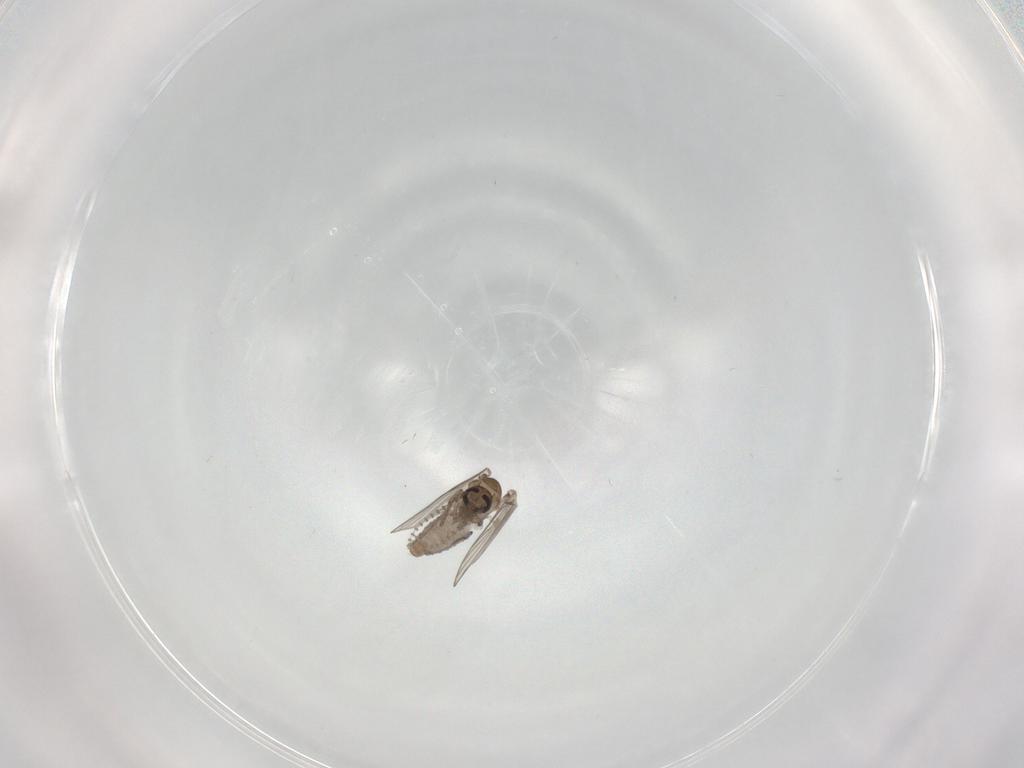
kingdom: Animalia
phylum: Arthropoda
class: Insecta
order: Diptera
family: Psychodidae
